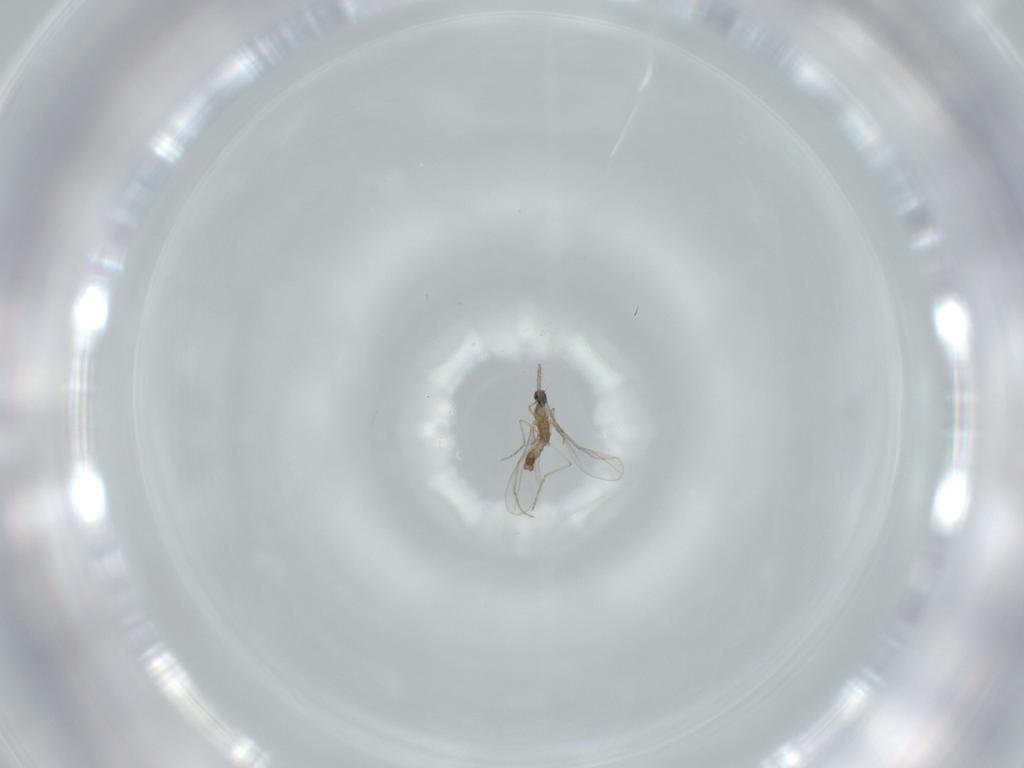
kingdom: Animalia
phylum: Arthropoda
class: Insecta
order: Diptera
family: Cecidomyiidae
